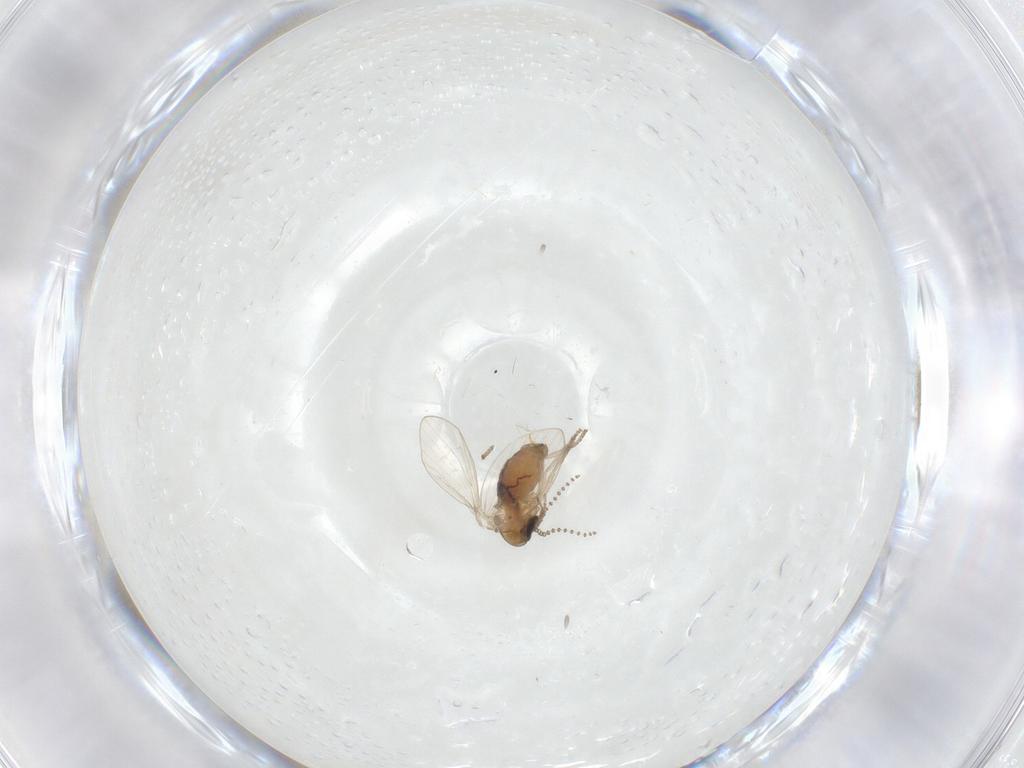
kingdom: Animalia
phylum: Arthropoda
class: Insecta
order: Diptera
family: Psychodidae
